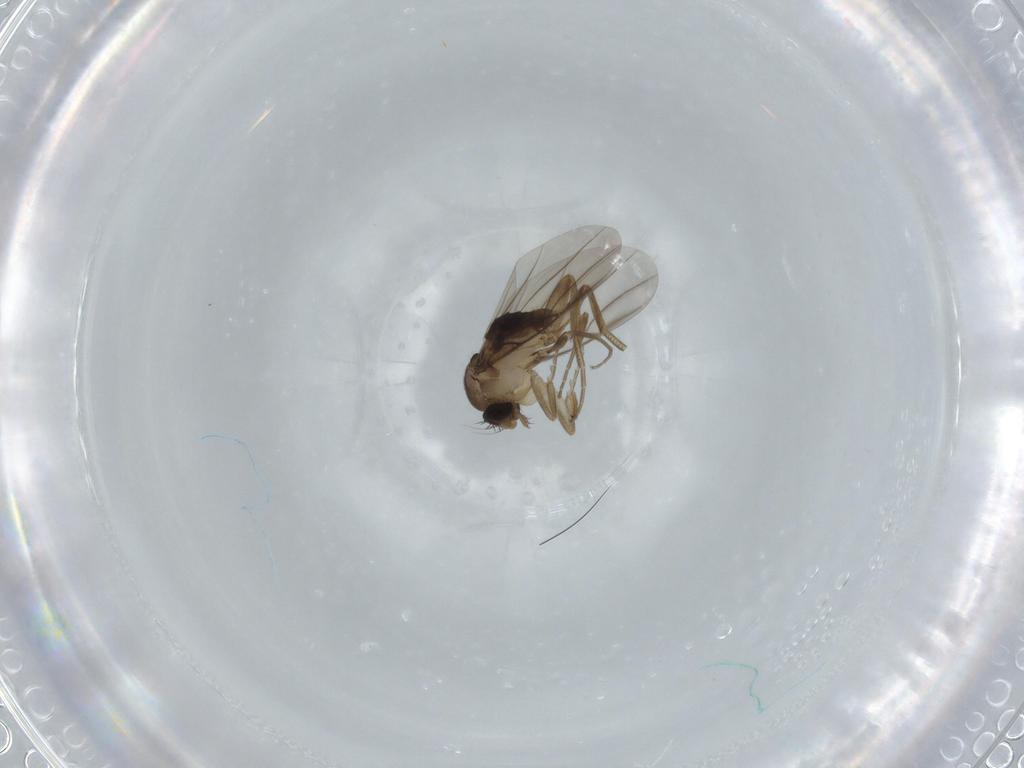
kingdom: Animalia
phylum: Arthropoda
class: Insecta
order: Diptera
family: Phoridae
